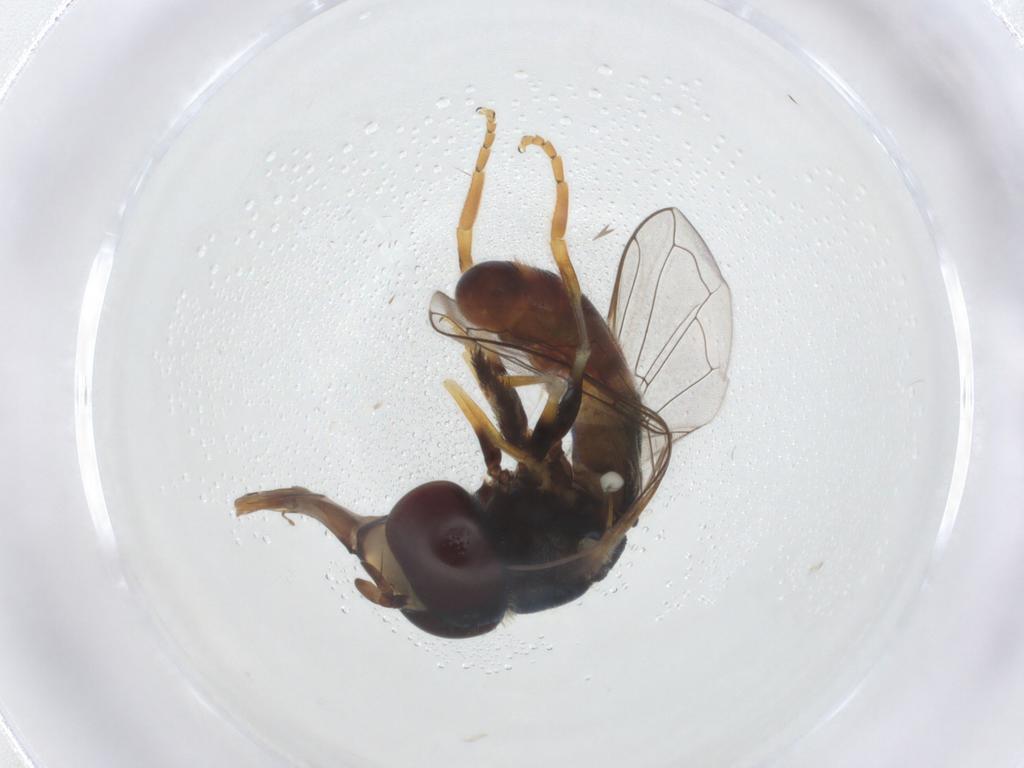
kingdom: Animalia
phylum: Arthropoda
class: Insecta
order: Diptera
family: Syrphidae
